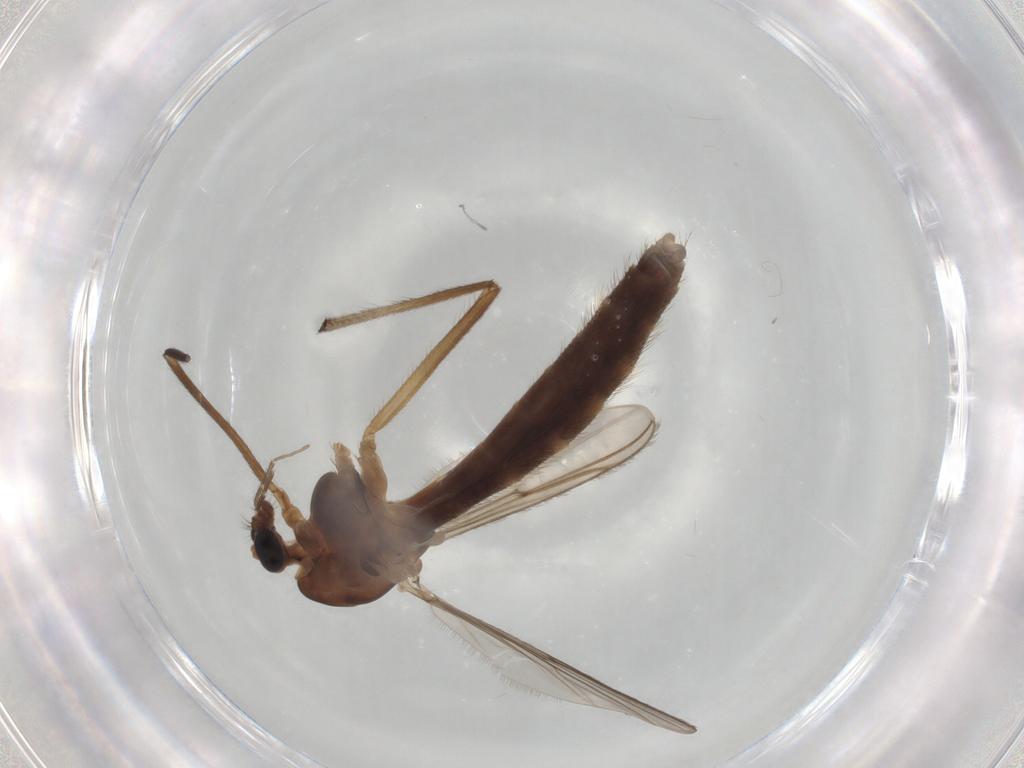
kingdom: Animalia
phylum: Arthropoda
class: Insecta
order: Diptera
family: Chironomidae
